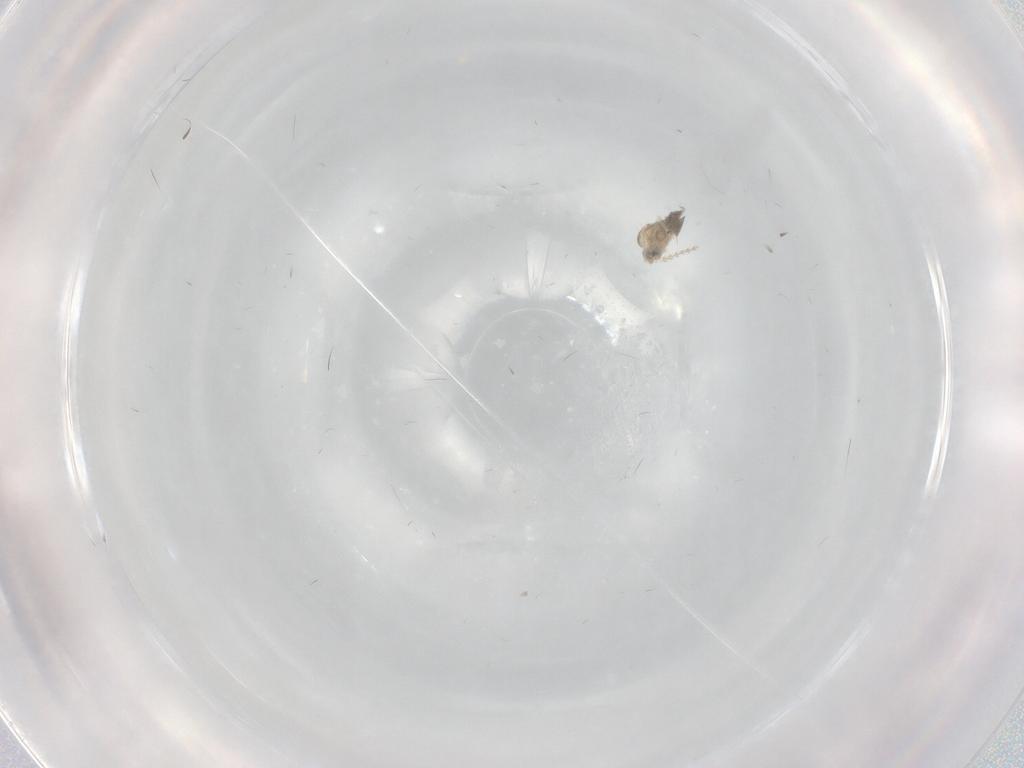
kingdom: Animalia
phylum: Arthropoda
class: Insecta
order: Diptera
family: Cecidomyiidae
